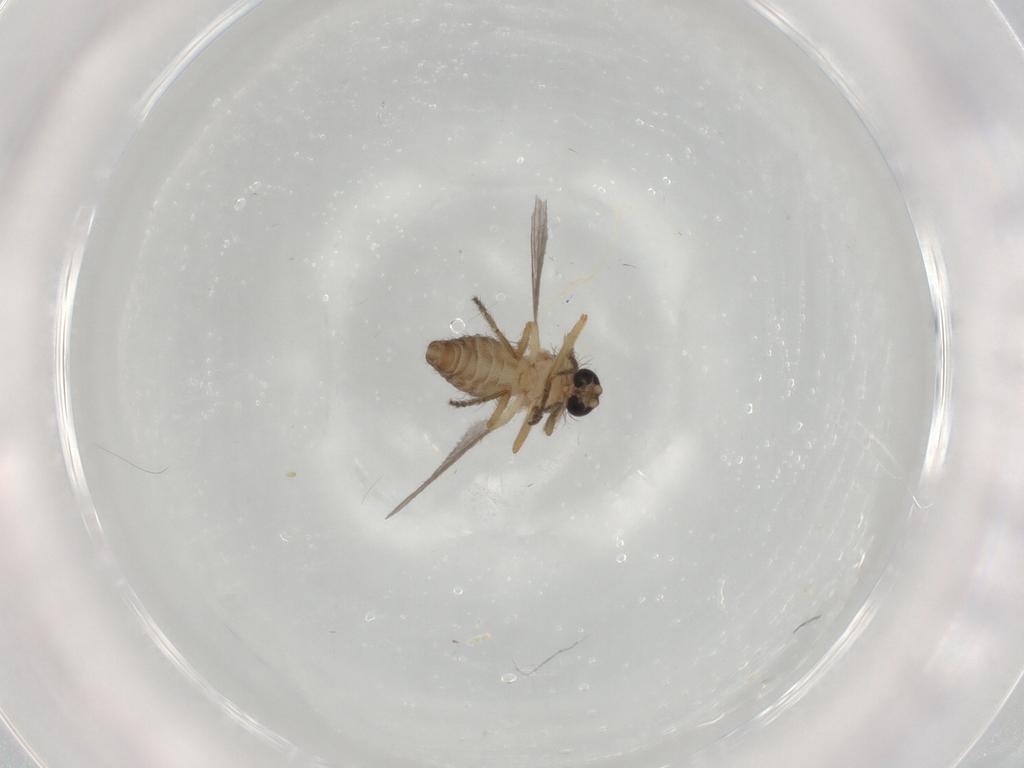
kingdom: Animalia
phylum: Arthropoda
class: Insecta
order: Diptera
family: Ceratopogonidae
